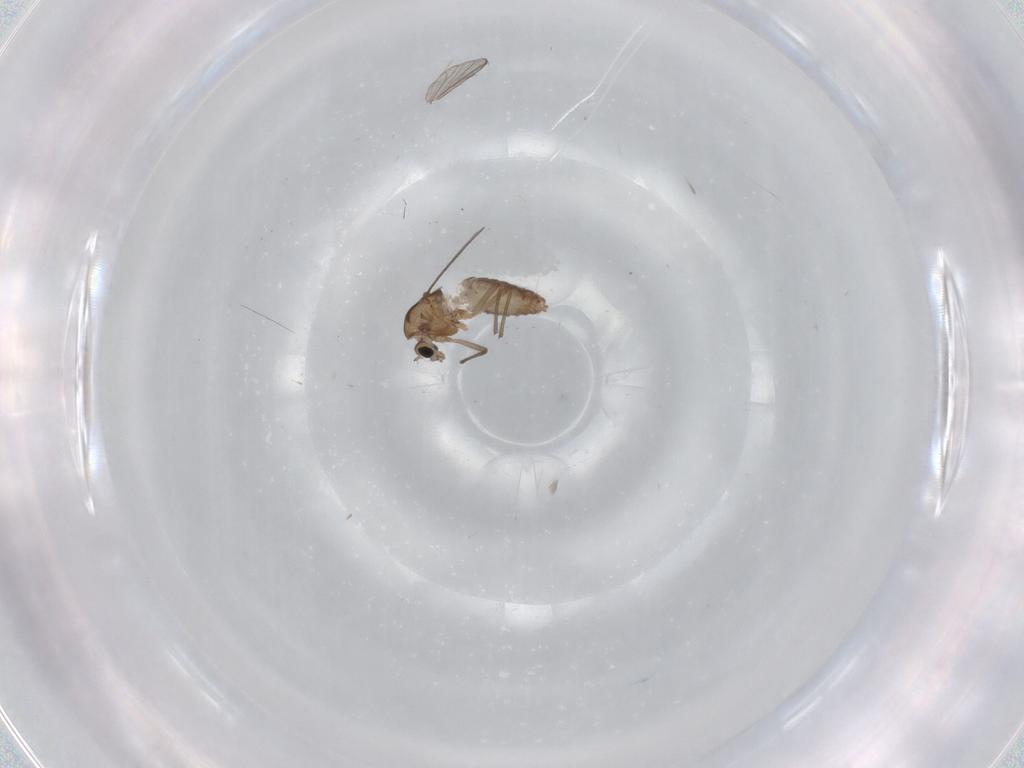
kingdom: Animalia
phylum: Arthropoda
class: Insecta
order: Diptera
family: Chironomidae
